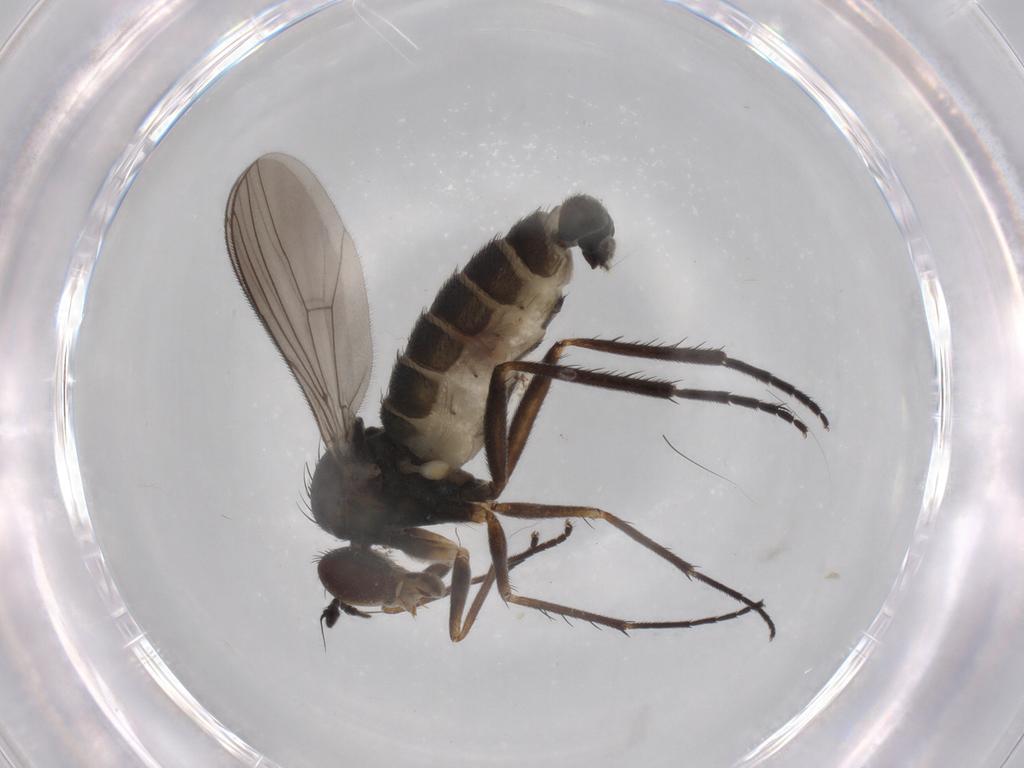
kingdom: Animalia
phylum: Arthropoda
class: Insecta
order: Diptera
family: Dolichopodidae
